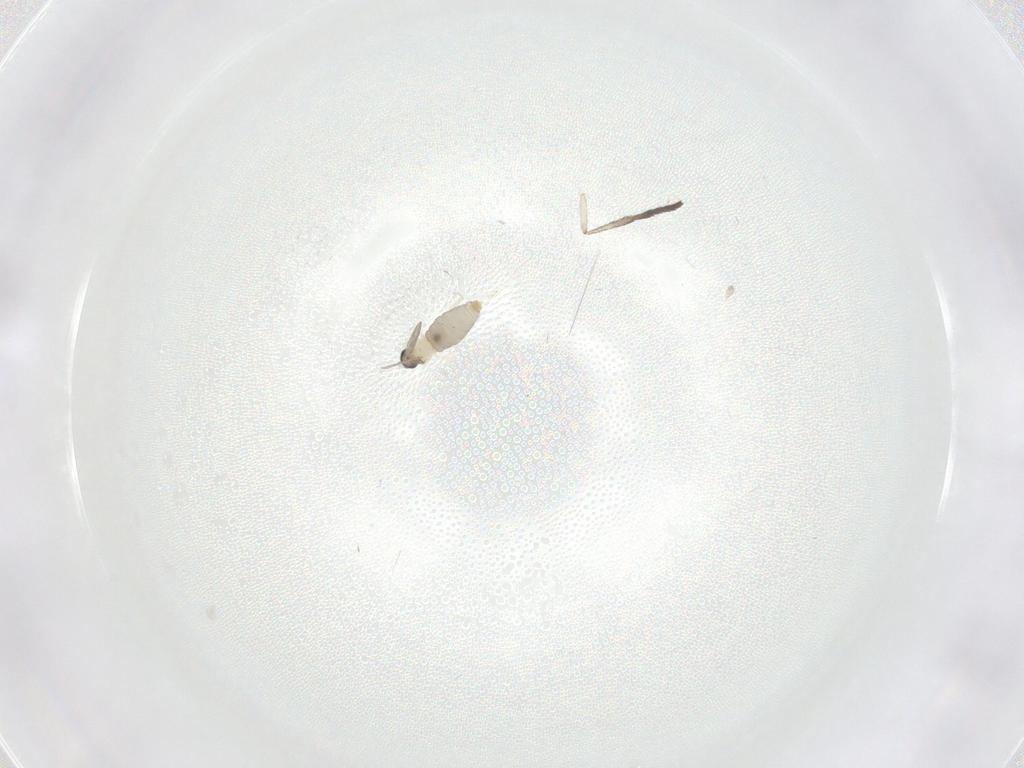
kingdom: Animalia
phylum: Arthropoda
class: Insecta
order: Diptera
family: Psychodidae
